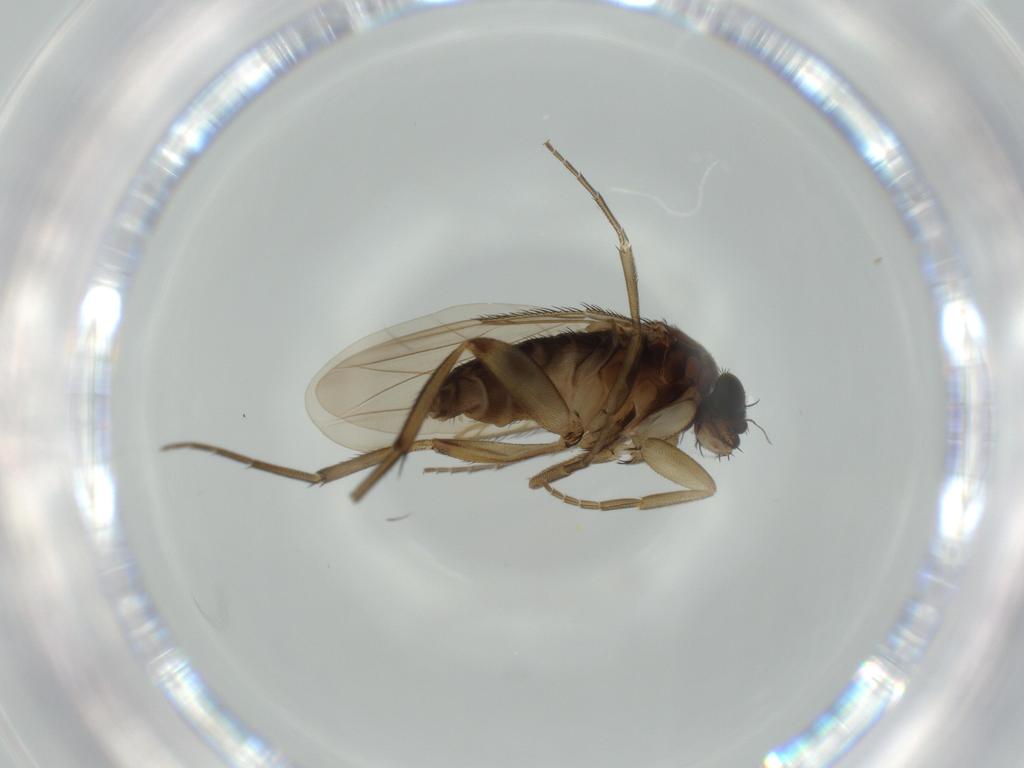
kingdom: Animalia
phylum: Arthropoda
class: Insecta
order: Diptera
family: Phoridae
